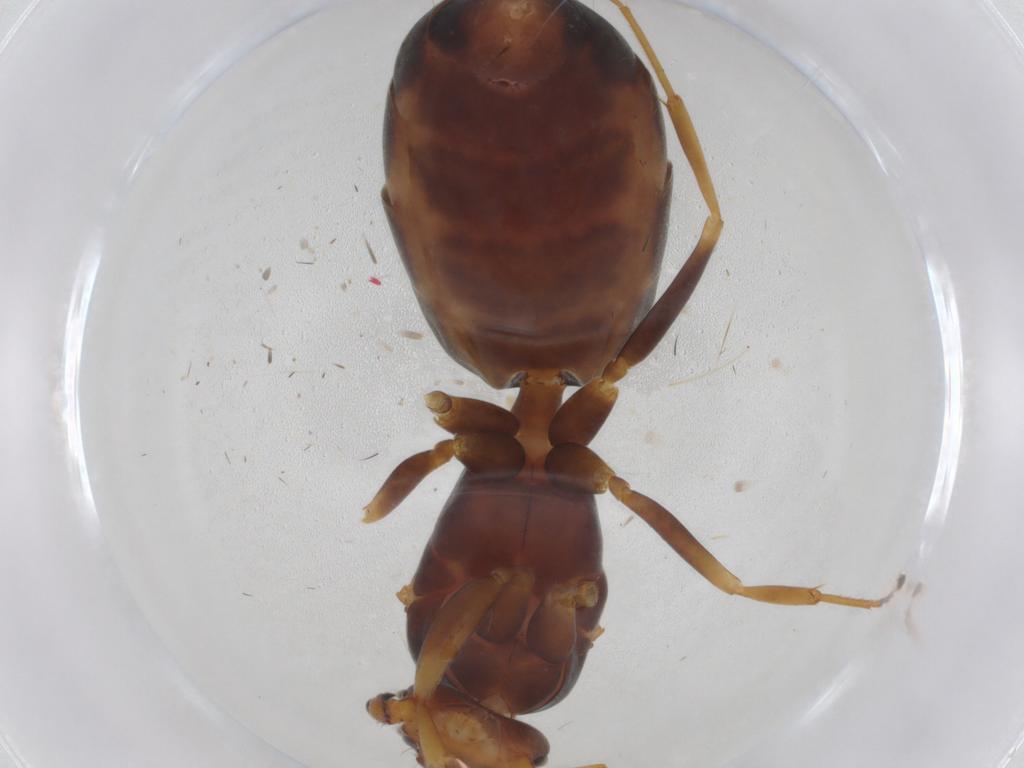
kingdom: Animalia
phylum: Arthropoda
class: Insecta
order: Hymenoptera
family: Formicidae
